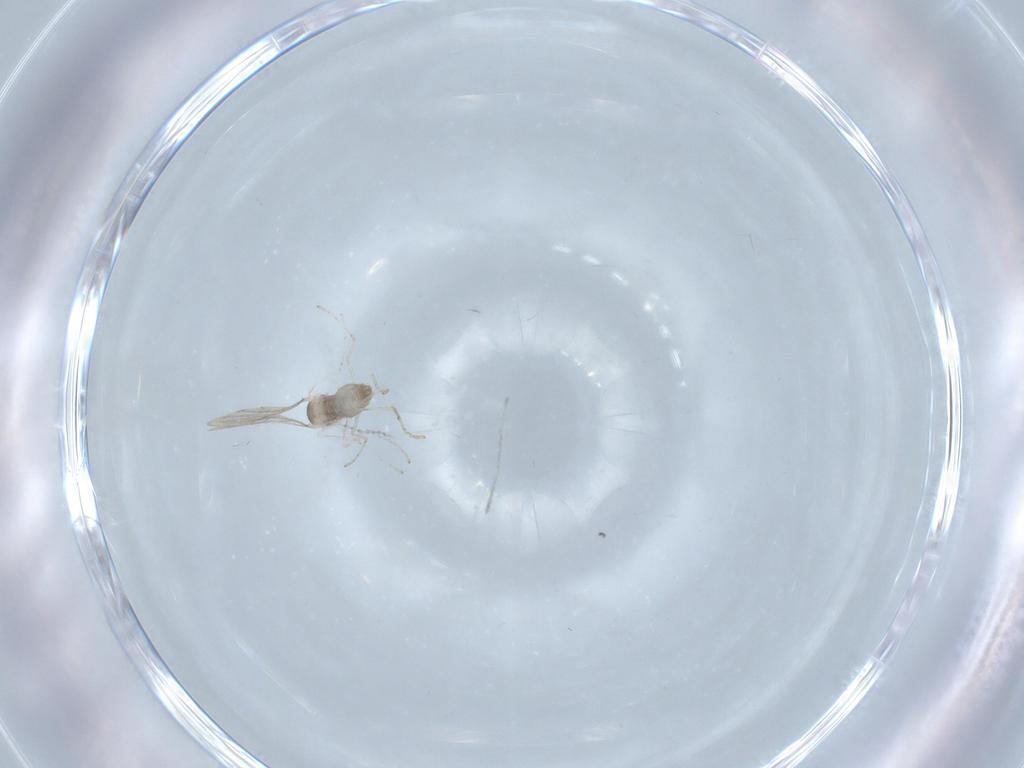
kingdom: Animalia
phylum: Arthropoda
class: Insecta
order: Diptera
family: Cecidomyiidae
